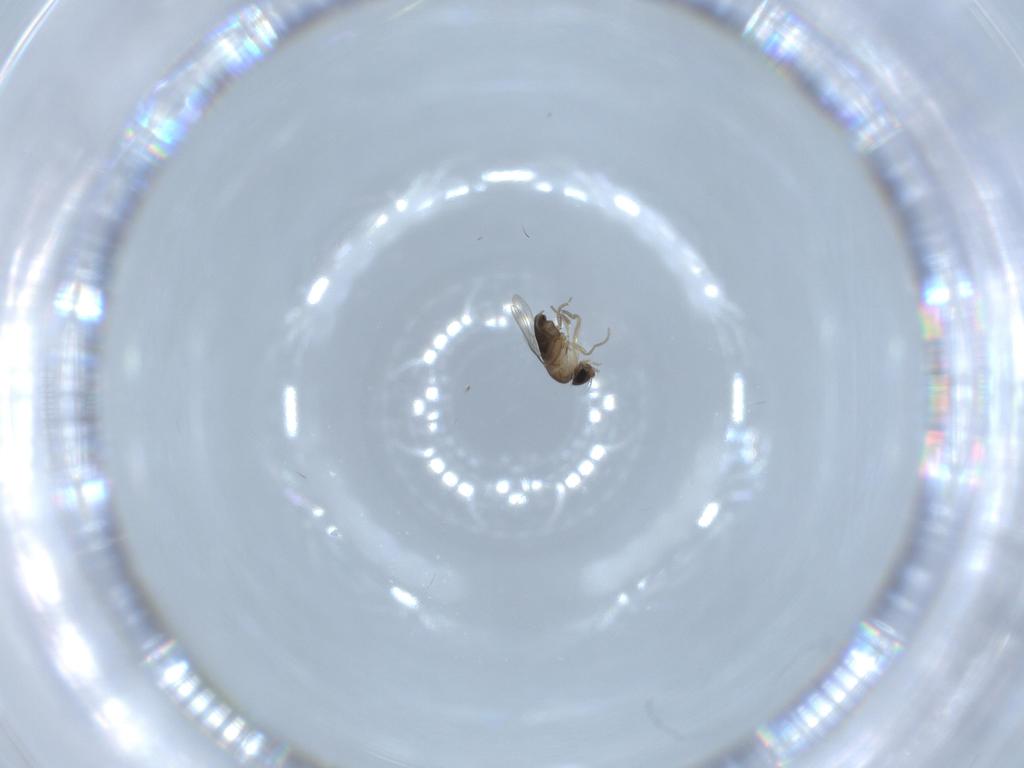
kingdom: Animalia
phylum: Arthropoda
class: Insecta
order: Diptera
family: Phoridae
